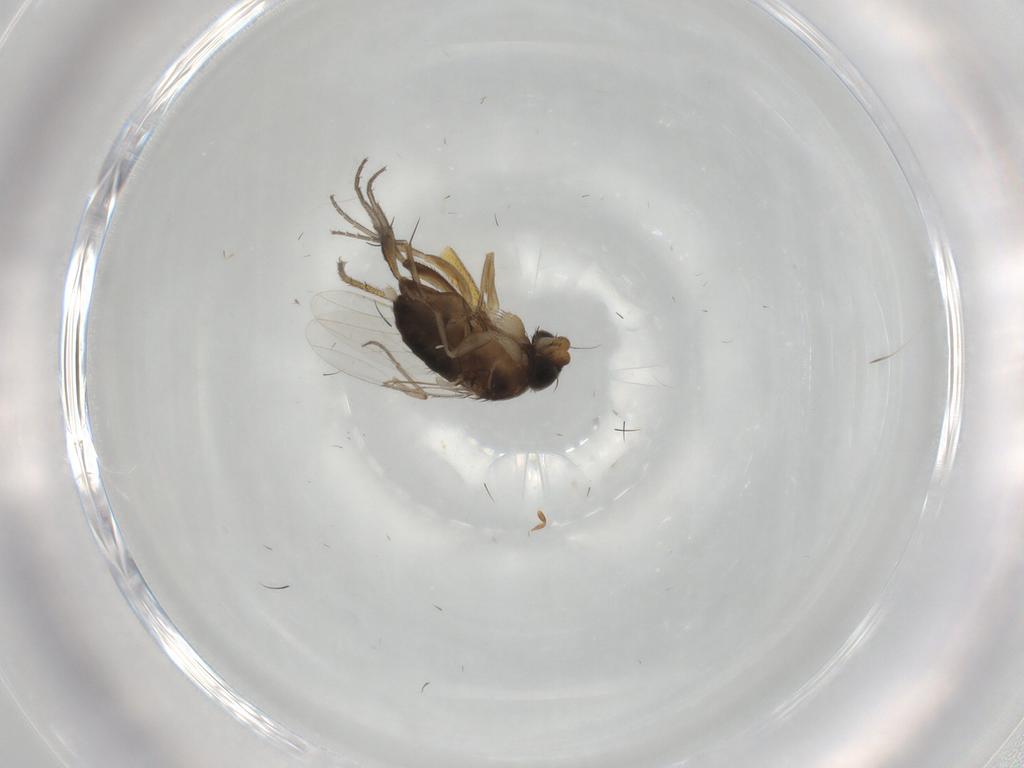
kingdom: Animalia
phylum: Arthropoda
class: Insecta
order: Diptera
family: Phoridae
